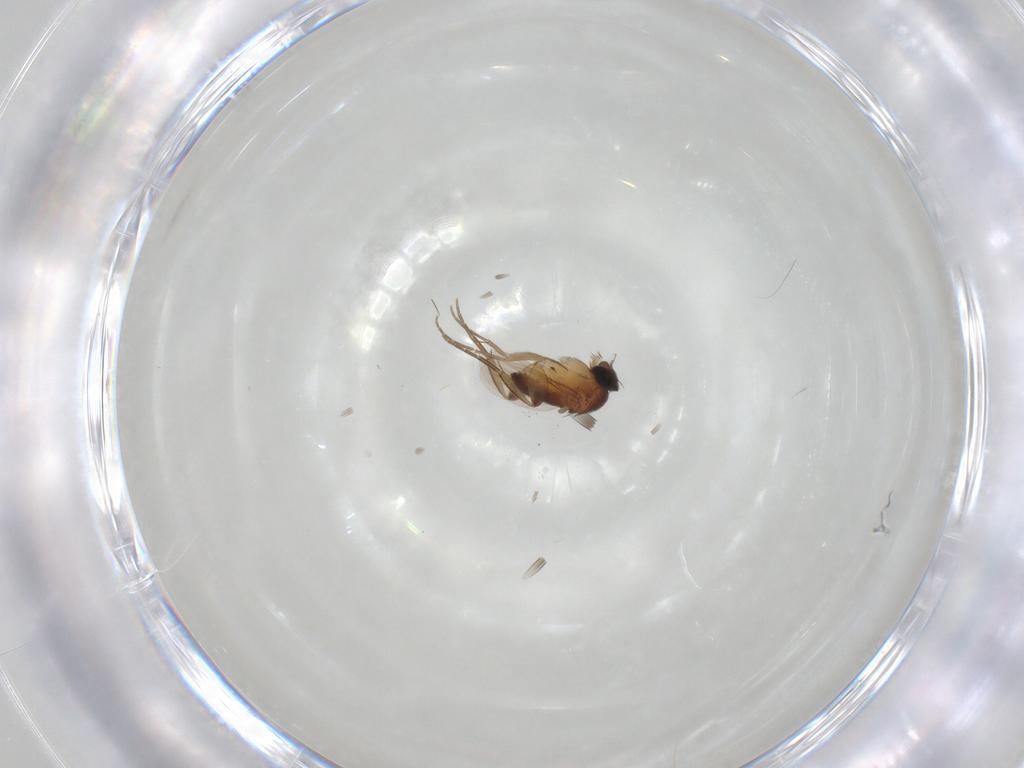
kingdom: Animalia
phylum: Arthropoda
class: Insecta
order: Diptera
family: Phoridae
